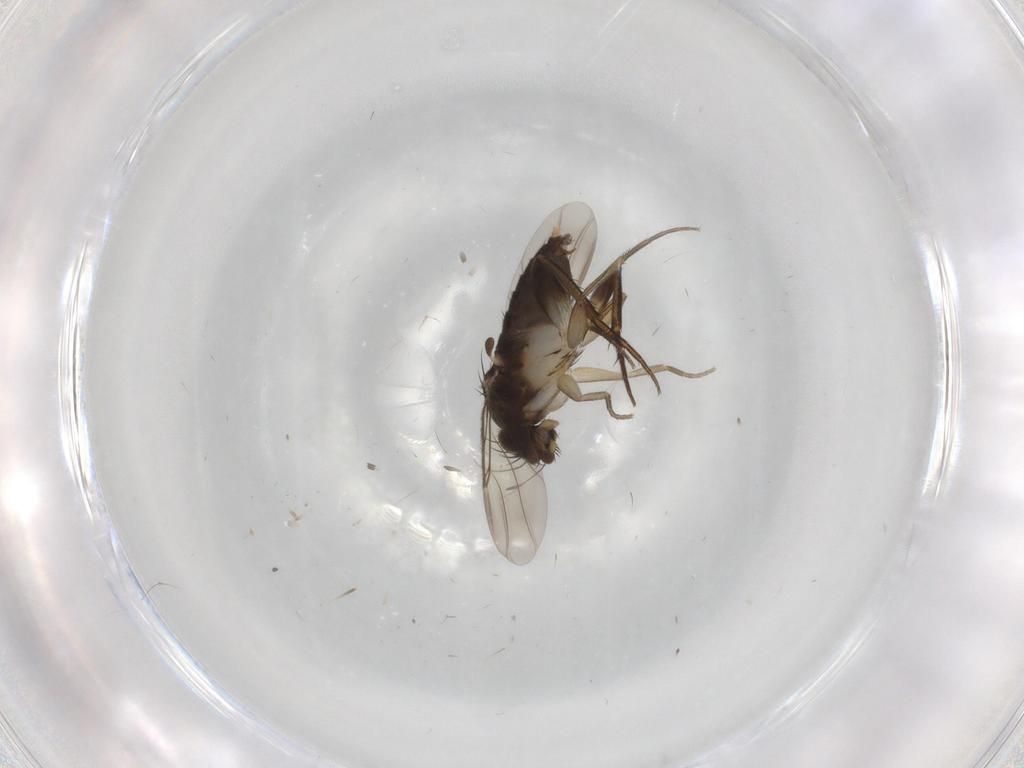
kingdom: Animalia
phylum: Arthropoda
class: Insecta
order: Diptera
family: Phoridae
